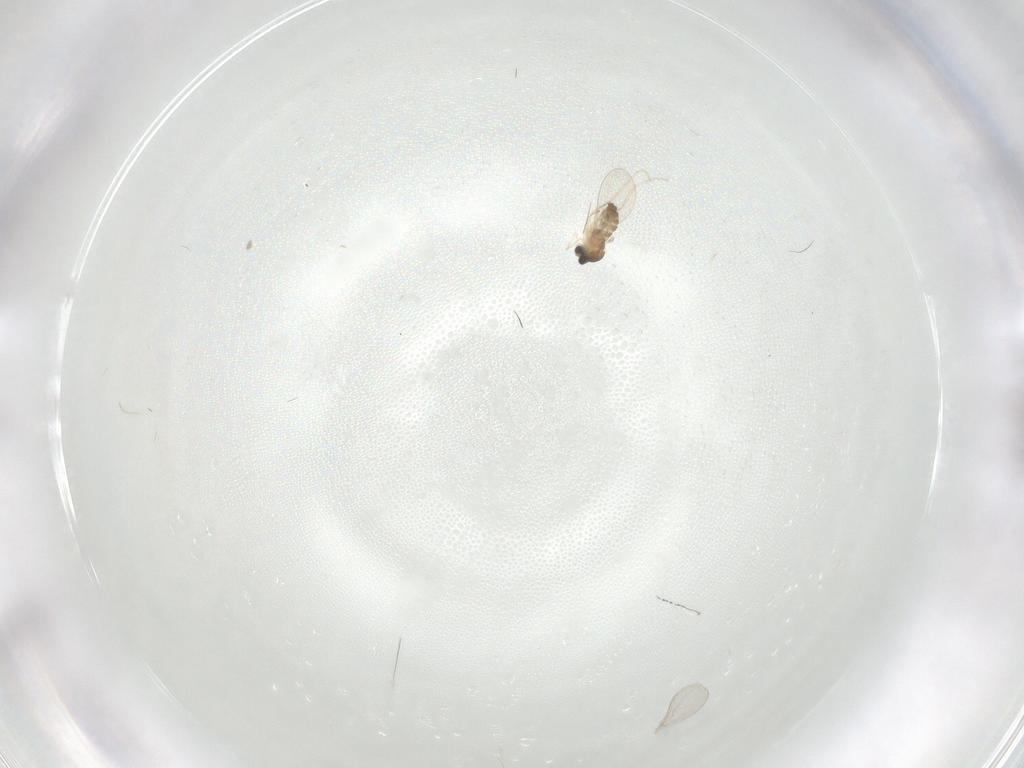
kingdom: Animalia
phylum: Arthropoda
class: Insecta
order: Diptera
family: Cecidomyiidae
